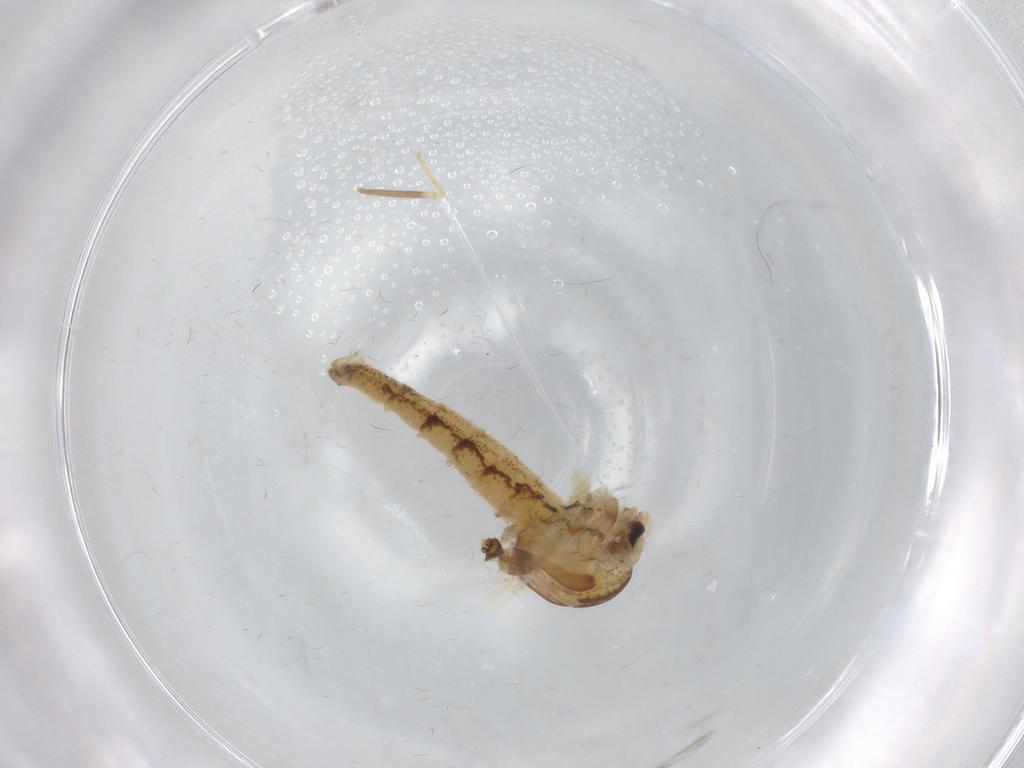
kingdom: Animalia
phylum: Arthropoda
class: Insecta
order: Diptera
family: Chaoboridae
